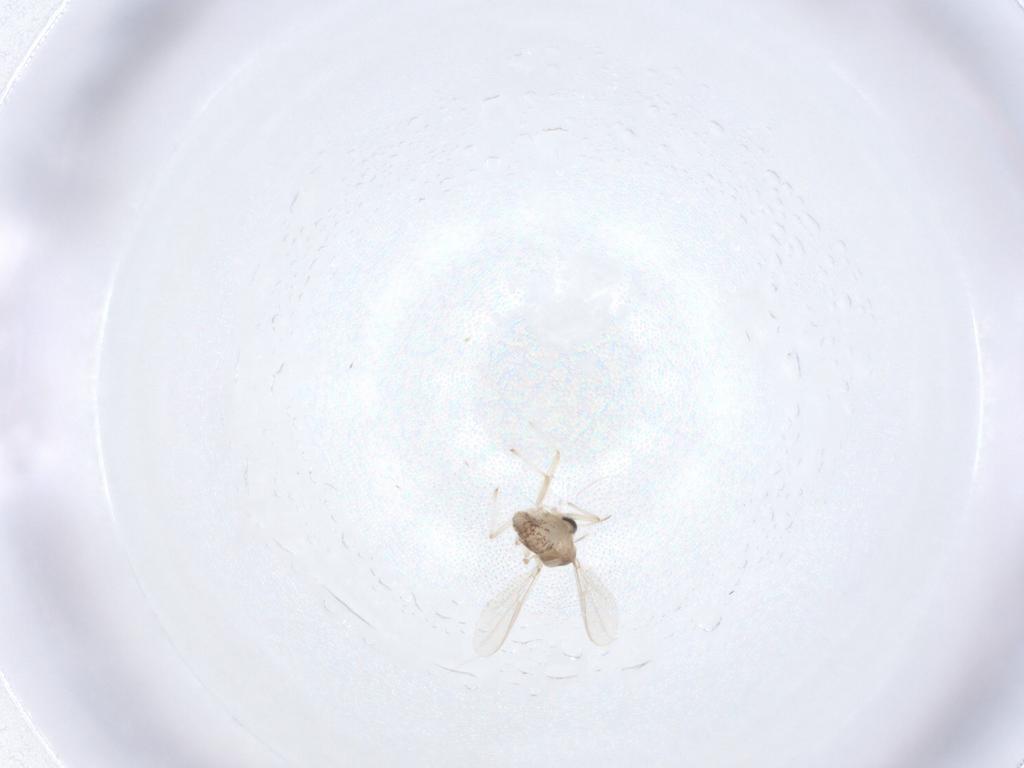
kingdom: Animalia
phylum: Arthropoda
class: Insecta
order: Diptera
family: Chironomidae
